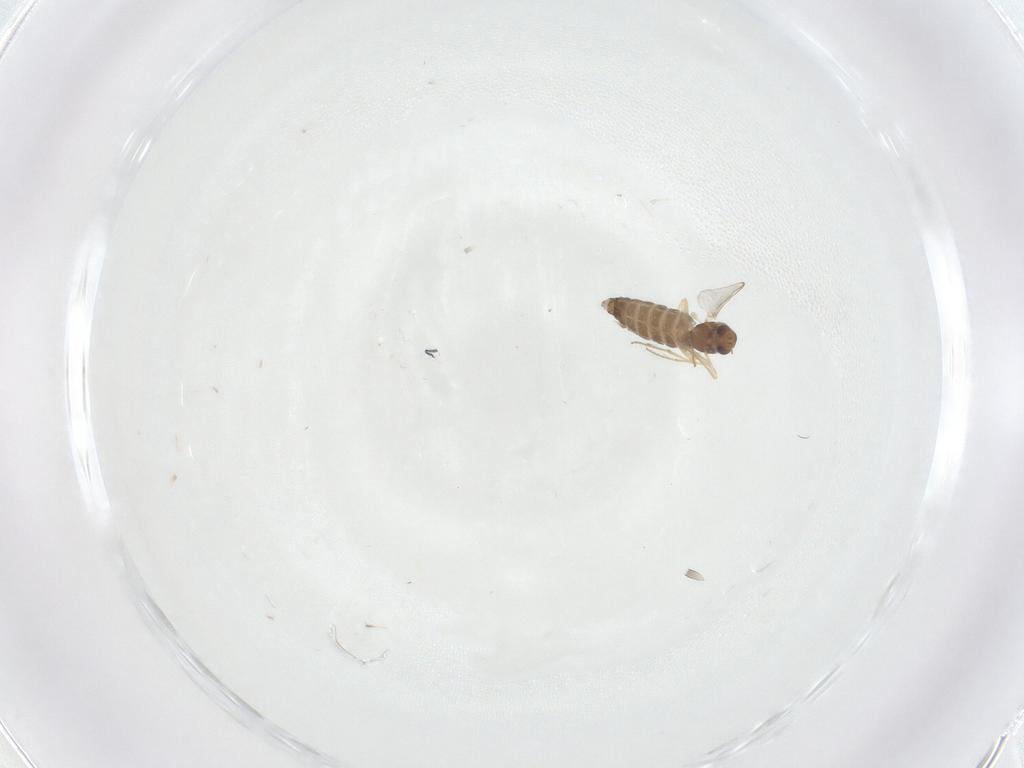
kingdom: Animalia
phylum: Arthropoda
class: Insecta
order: Diptera
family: Chironomidae
